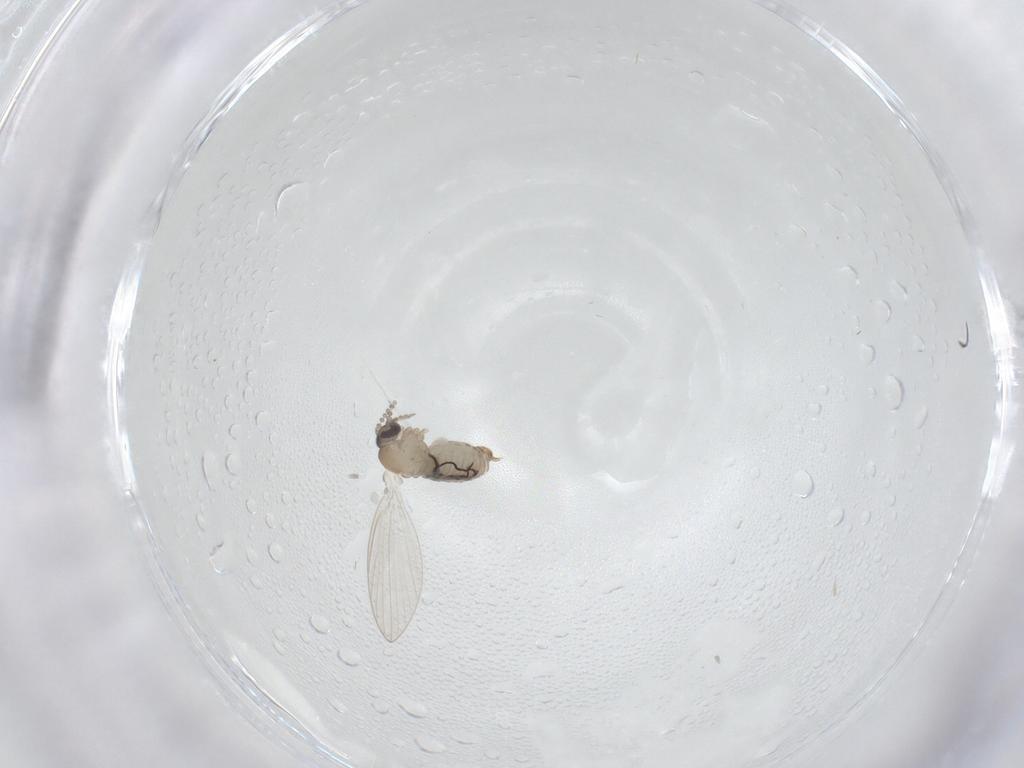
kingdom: Animalia
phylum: Arthropoda
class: Insecta
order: Diptera
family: Psychodidae
